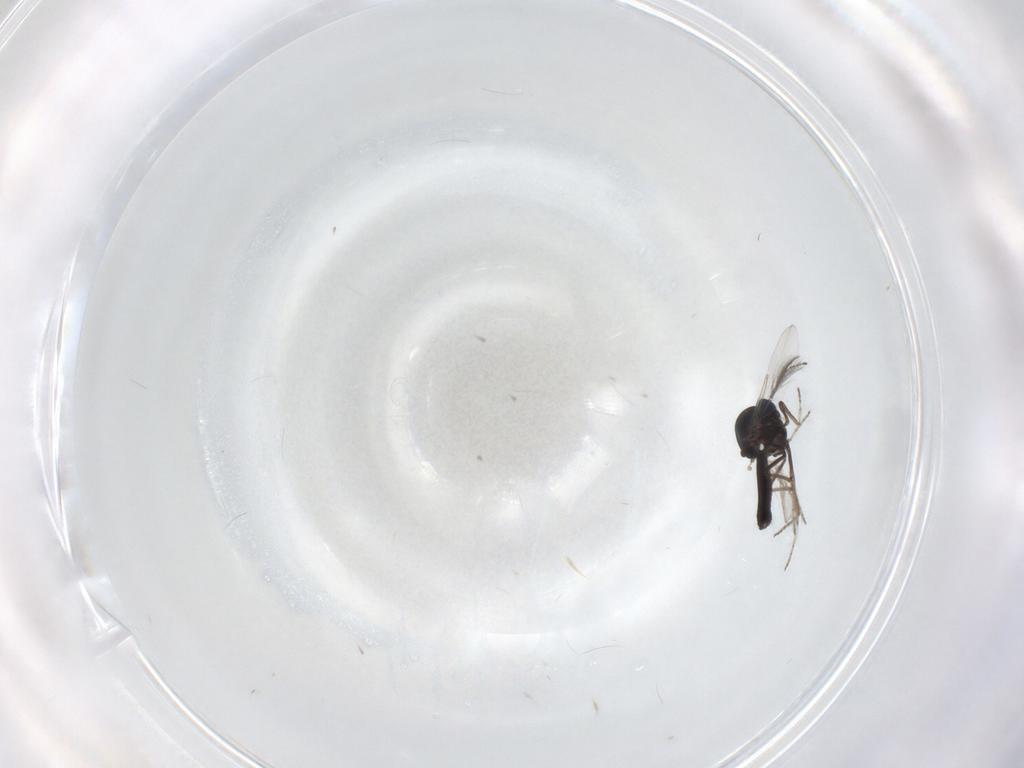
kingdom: Animalia
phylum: Arthropoda
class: Insecta
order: Diptera
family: Ceratopogonidae
